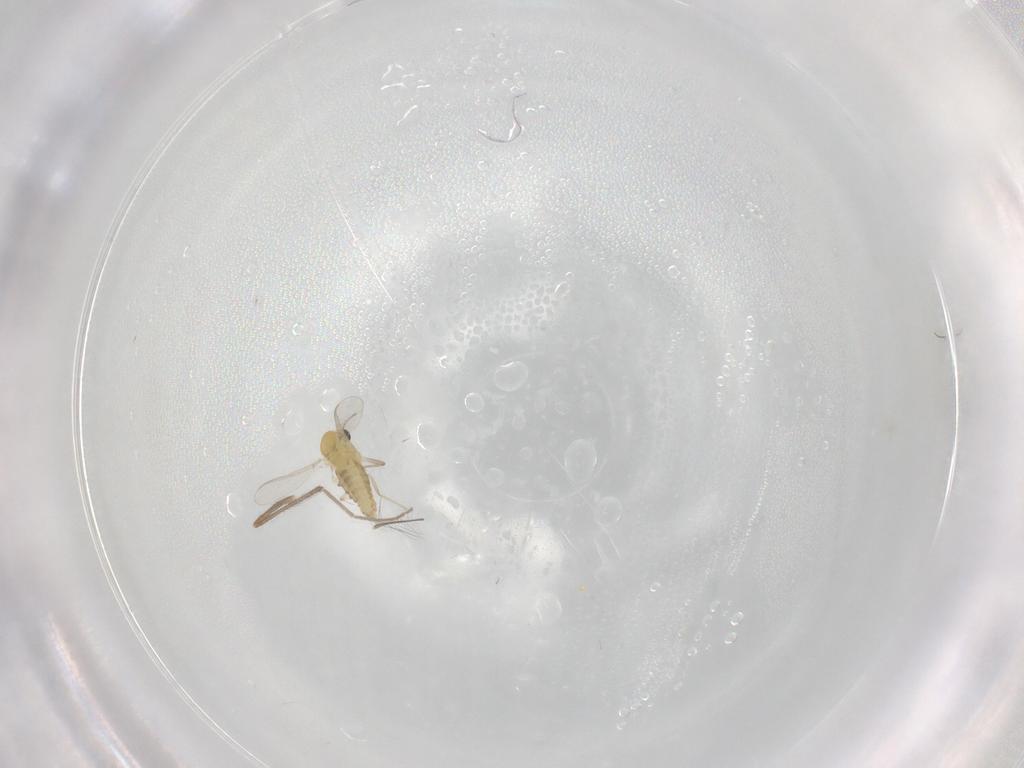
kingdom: Animalia
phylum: Arthropoda
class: Insecta
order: Diptera
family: Chironomidae
